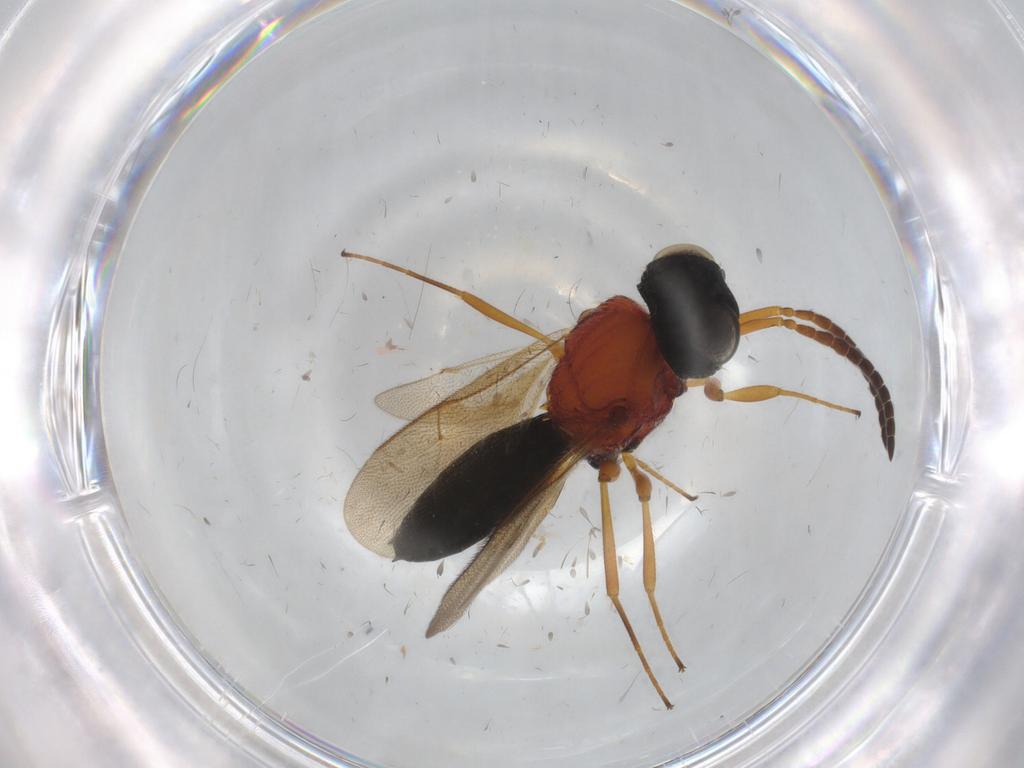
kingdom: Animalia
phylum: Arthropoda
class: Insecta
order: Hymenoptera
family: Scelionidae
